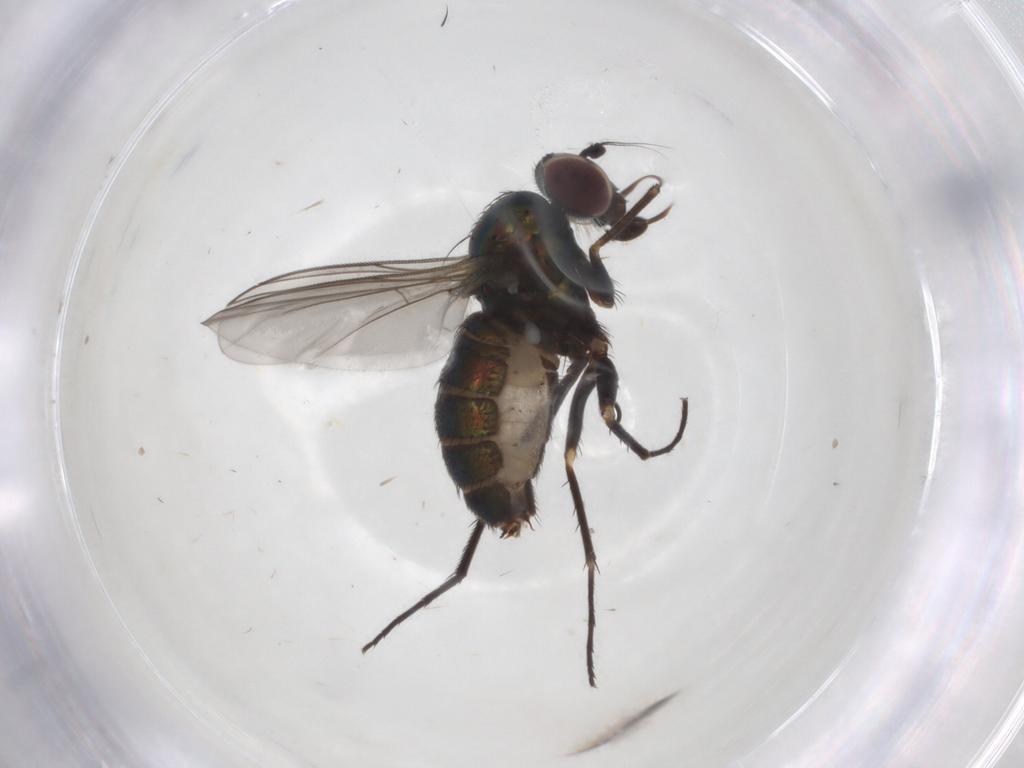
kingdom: Animalia
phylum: Arthropoda
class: Insecta
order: Diptera
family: Dolichopodidae
